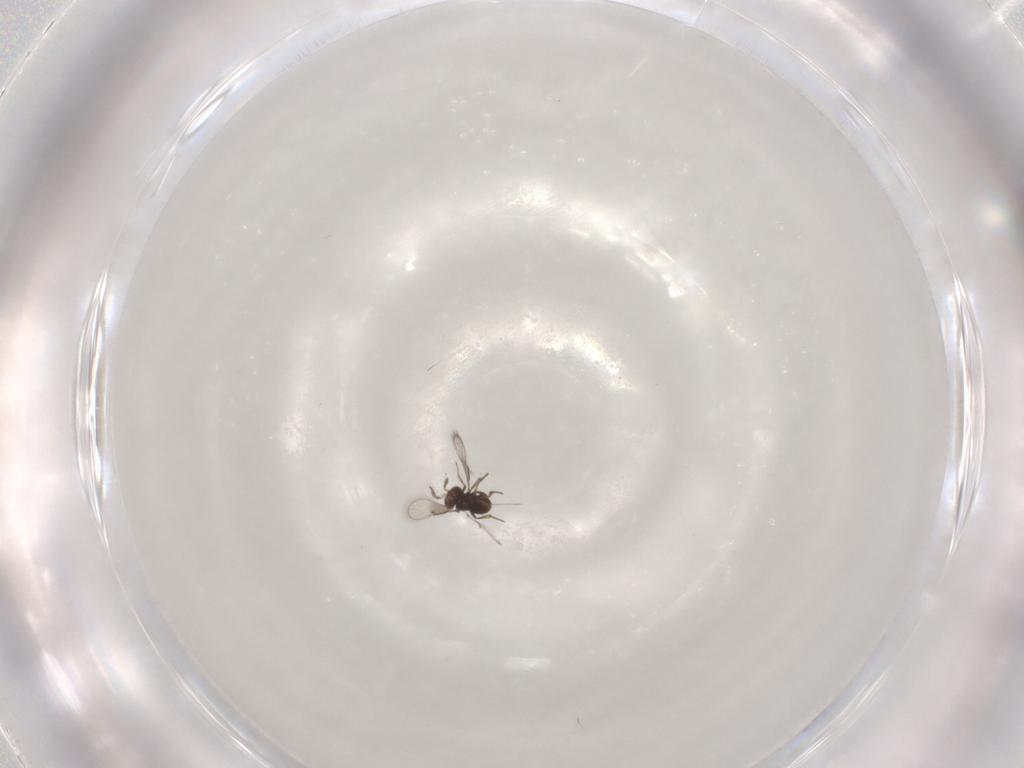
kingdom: Animalia
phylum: Arthropoda
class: Insecta
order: Hymenoptera
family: Trichogrammatidae
